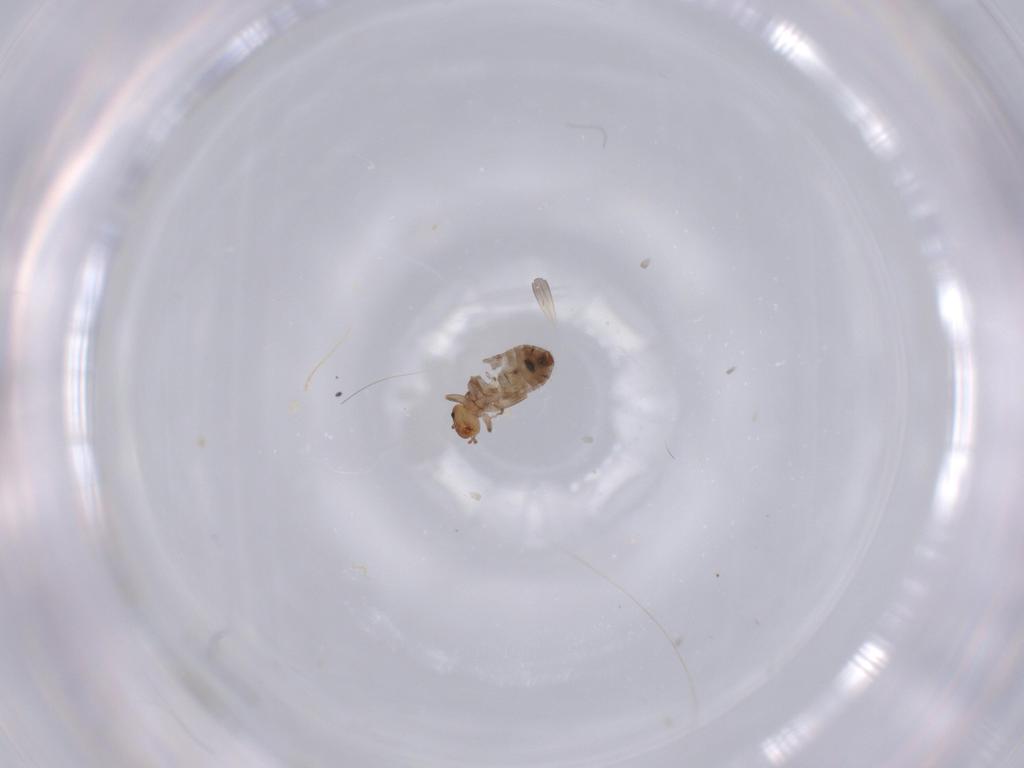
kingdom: Animalia
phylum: Arthropoda
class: Insecta
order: Psocodea
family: Liposcelididae
